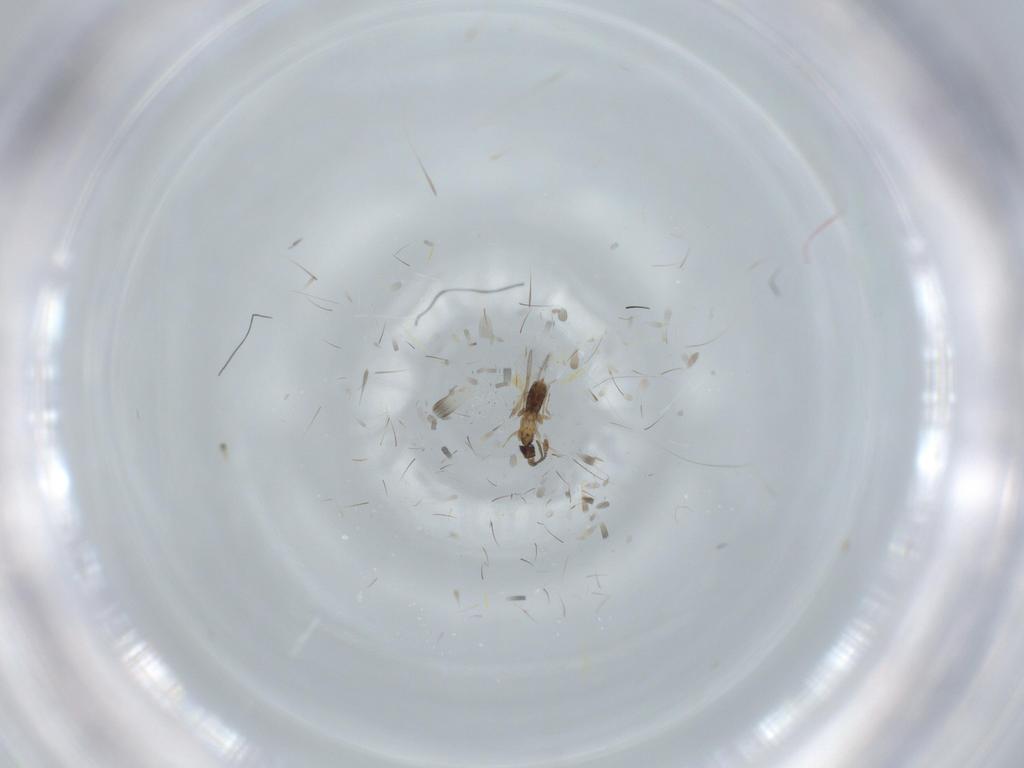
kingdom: Animalia
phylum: Arthropoda
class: Insecta
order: Hymenoptera
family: Mymaridae
